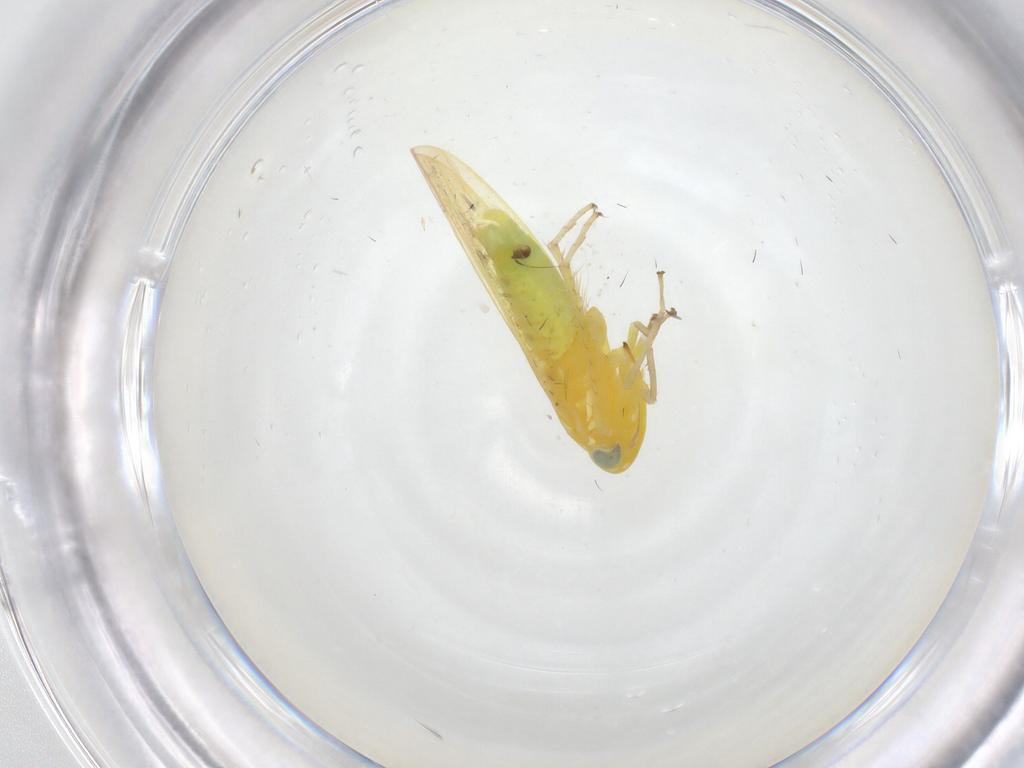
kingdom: Animalia
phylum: Arthropoda
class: Insecta
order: Hemiptera
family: Cicadellidae
